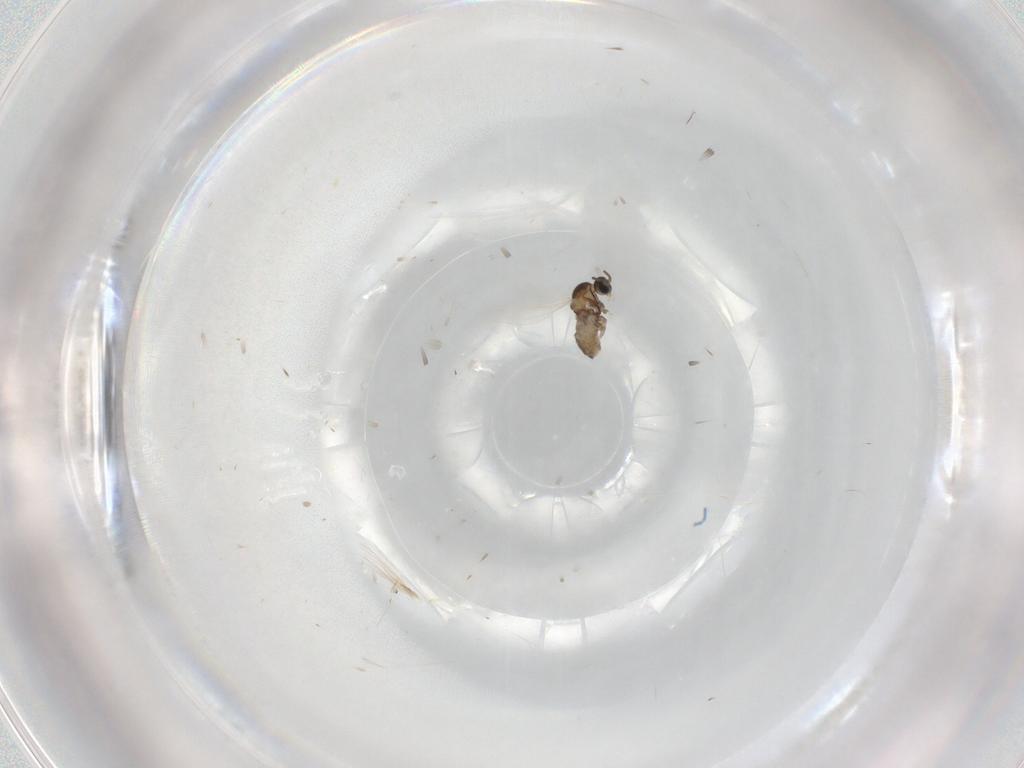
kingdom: Animalia
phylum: Arthropoda
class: Insecta
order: Diptera
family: Cecidomyiidae
